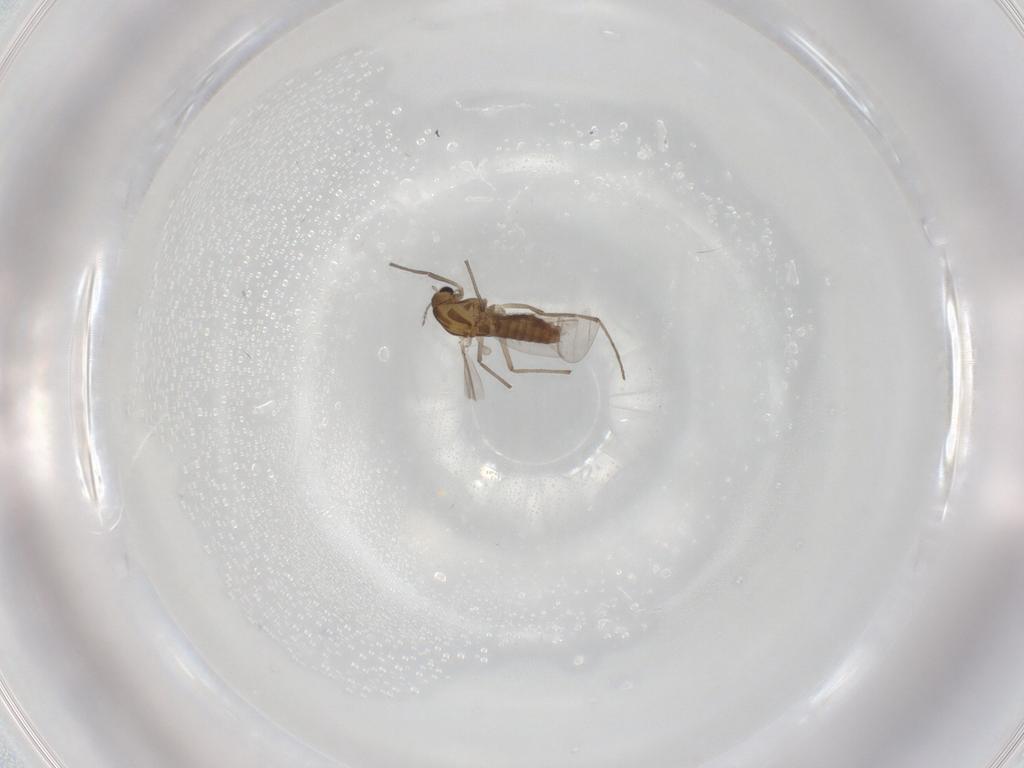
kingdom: Animalia
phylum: Arthropoda
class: Insecta
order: Diptera
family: Chironomidae
